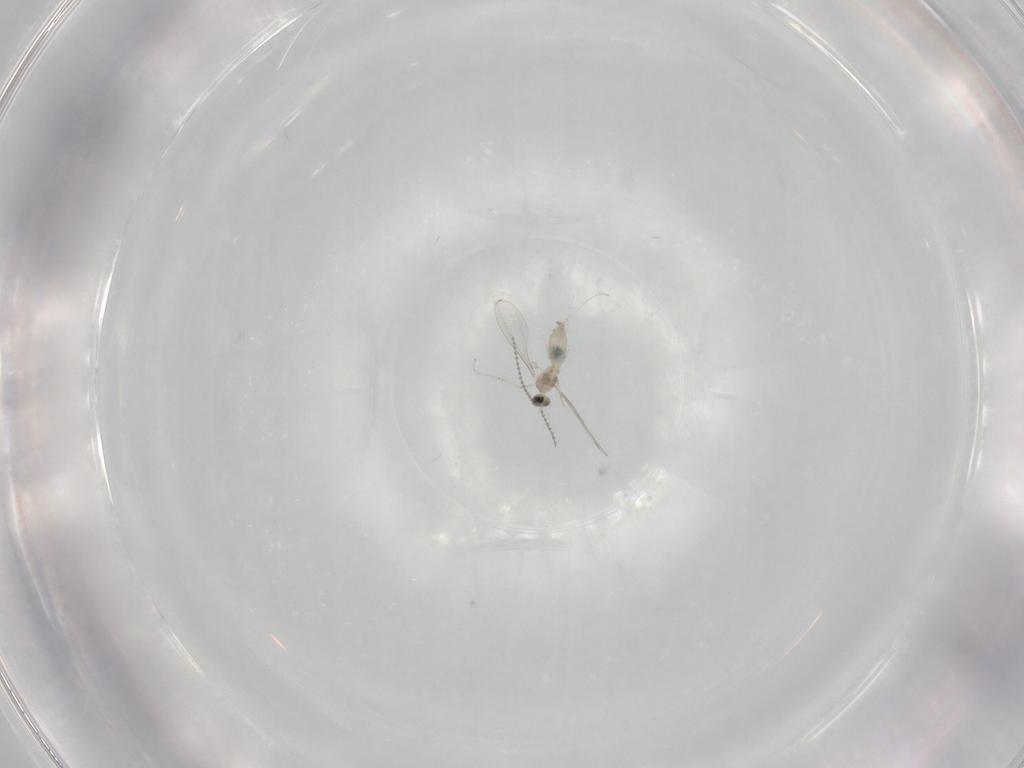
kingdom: Animalia
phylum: Arthropoda
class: Insecta
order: Diptera
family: Cecidomyiidae
